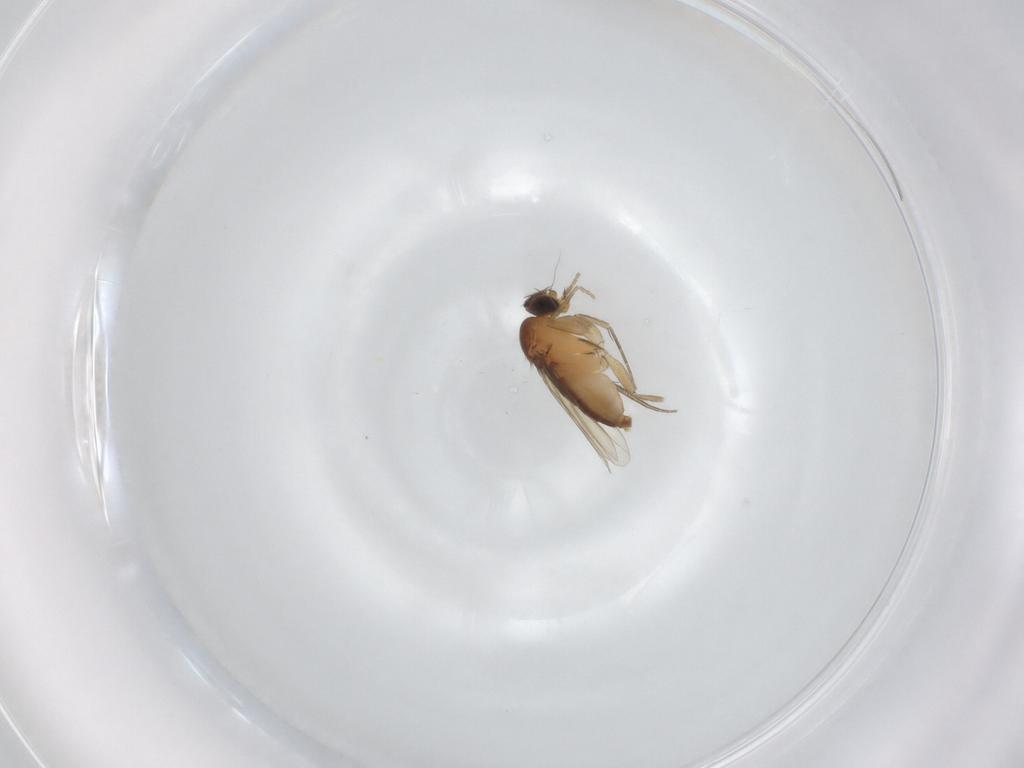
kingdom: Animalia
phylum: Arthropoda
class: Insecta
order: Diptera
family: Phoridae
